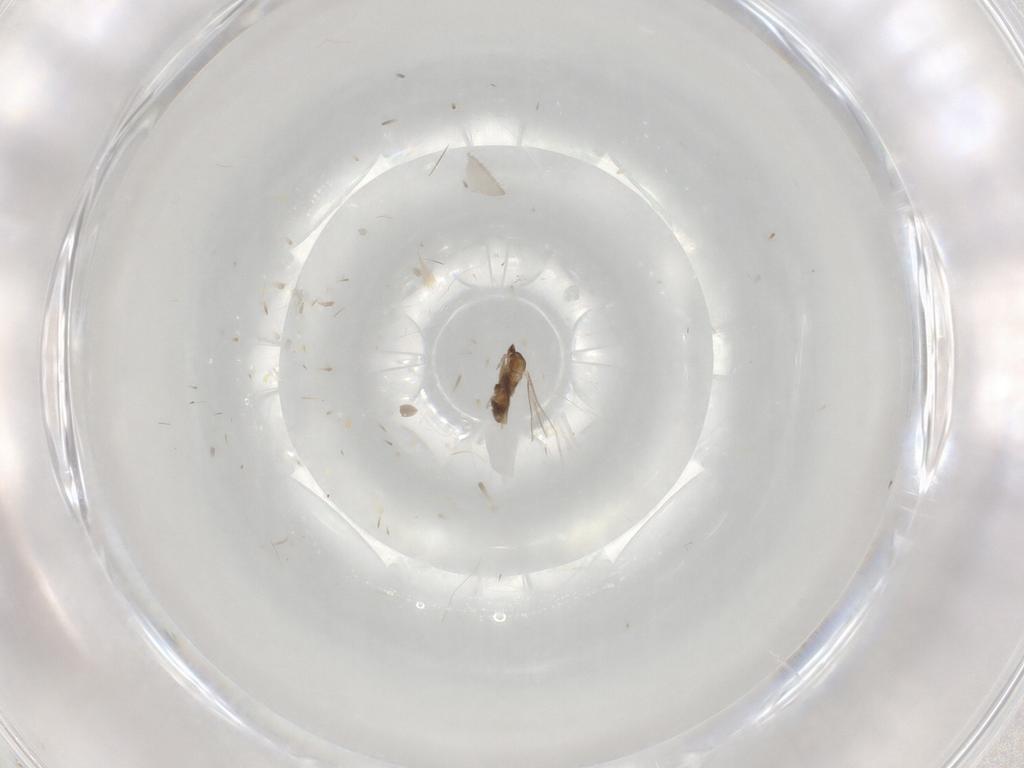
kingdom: Animalia
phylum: Arthropoda
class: Insecta
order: Diptera
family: Cecidomyiidae
